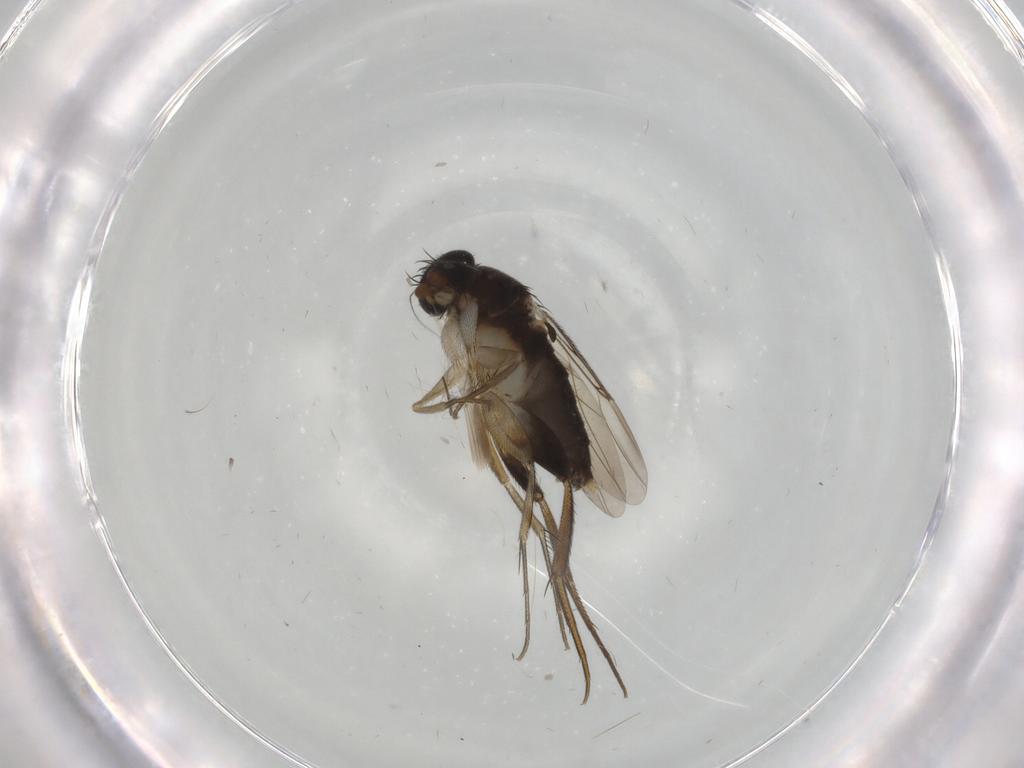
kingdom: Animalia
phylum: Arthropoda
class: Insecta
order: Diptera
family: Phoridae
